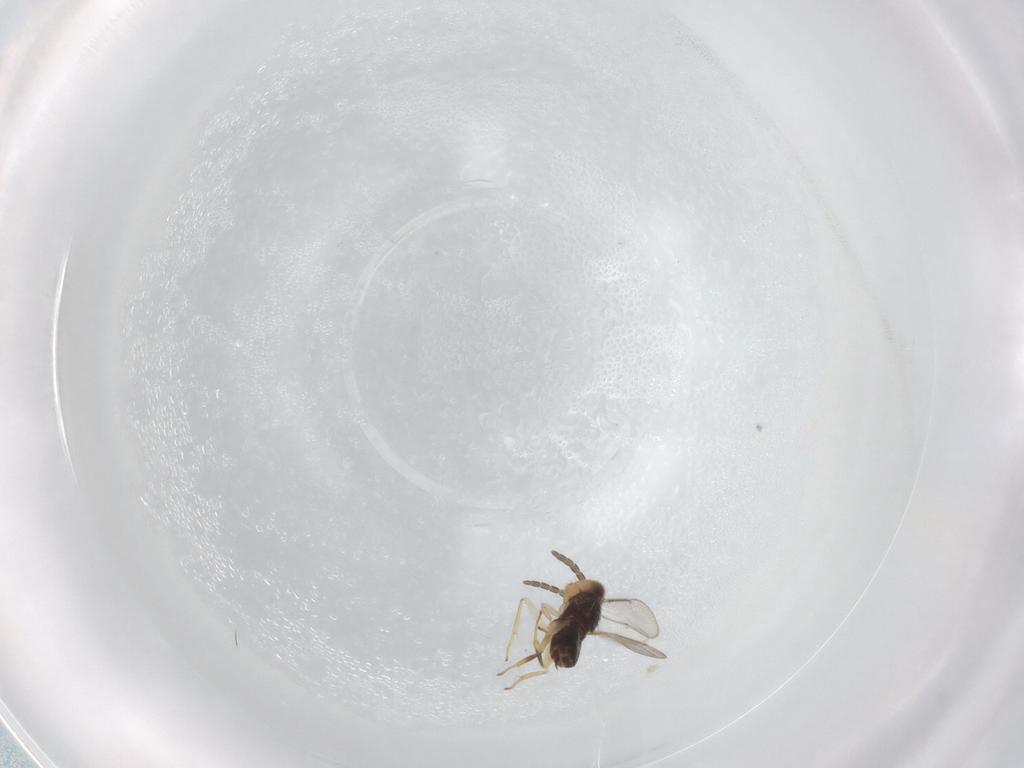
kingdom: Animalia
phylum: Arthropoda
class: Insecta
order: Hymenoptera
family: Aphelinidae
